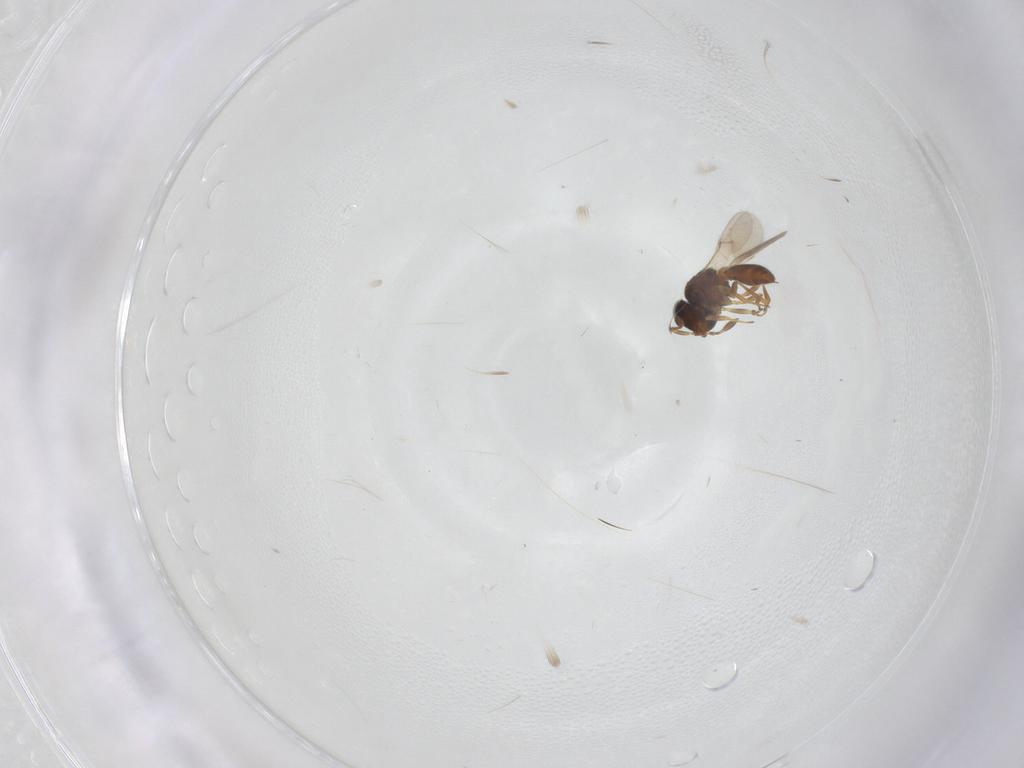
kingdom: Animalia
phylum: Arthropoda
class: Insecta
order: Hymenoptera
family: Scelionidae
